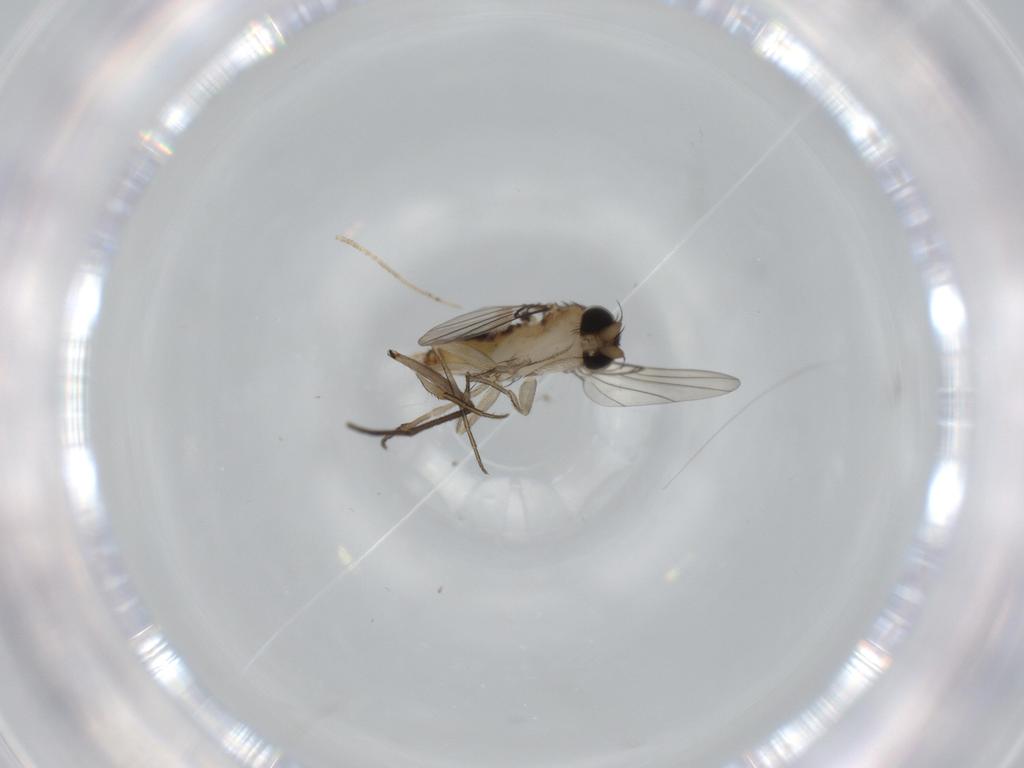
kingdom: Animalia
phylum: Arthropoda
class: Insecta
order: Diptera
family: Phoridae
